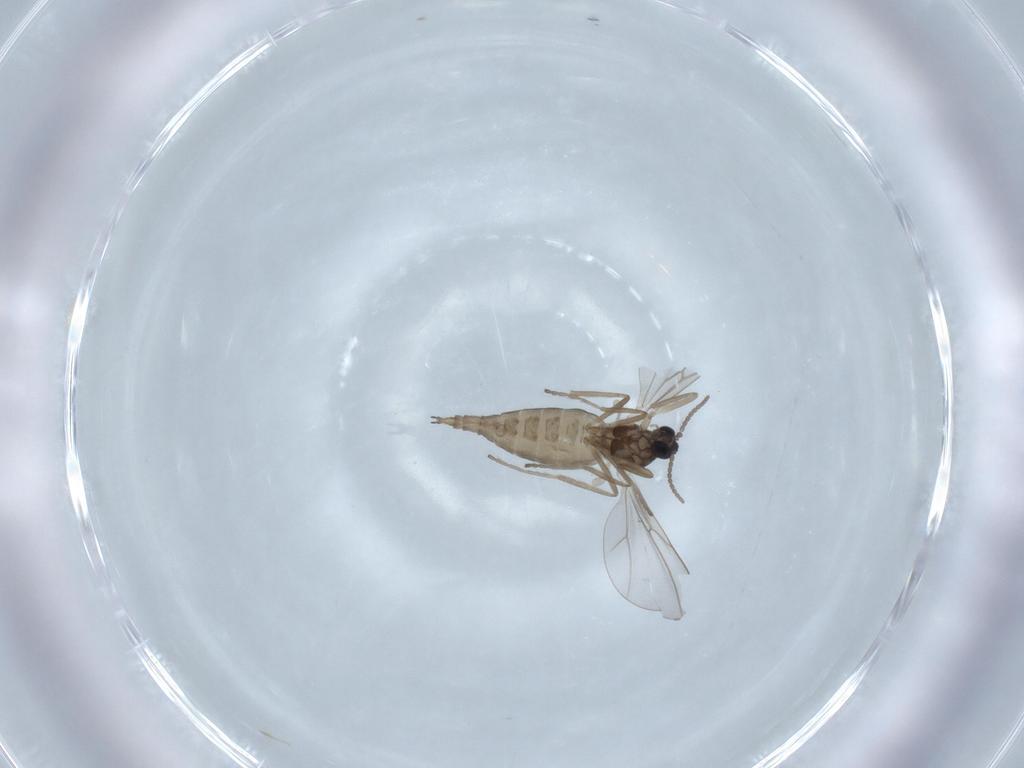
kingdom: Animalia
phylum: Arthropoda
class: Insecta
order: Diptera
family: Cecidomyiidae
